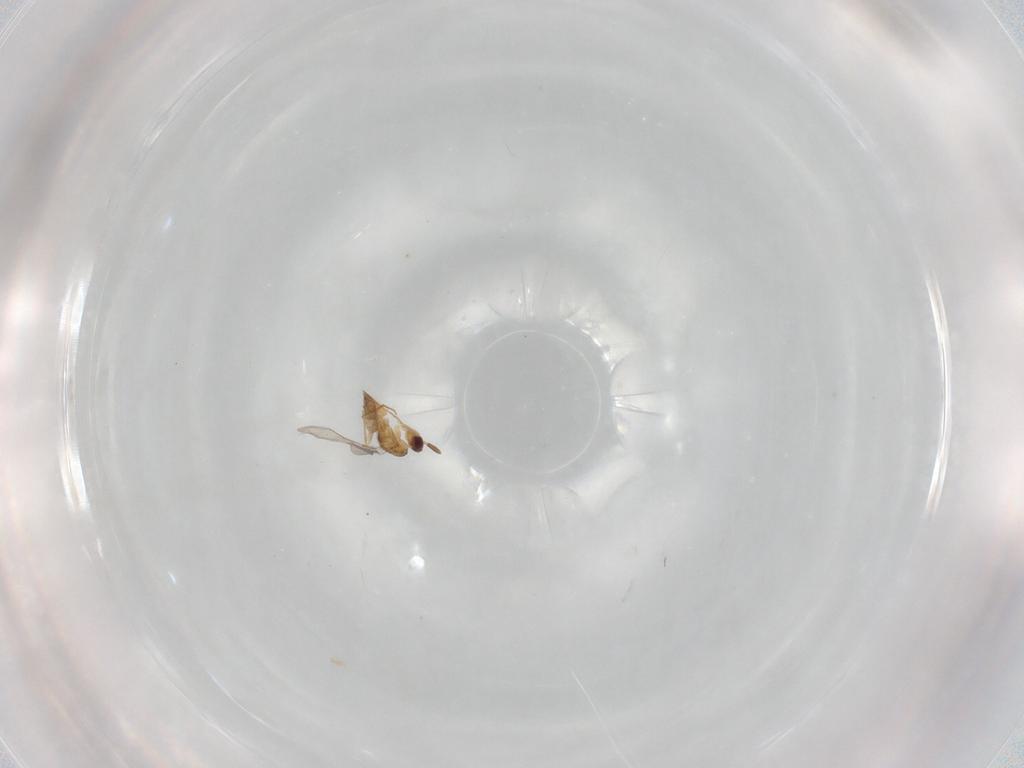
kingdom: Animalia
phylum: Arthropoda
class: Insecta
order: Hymenoptera
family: Mymaridae
